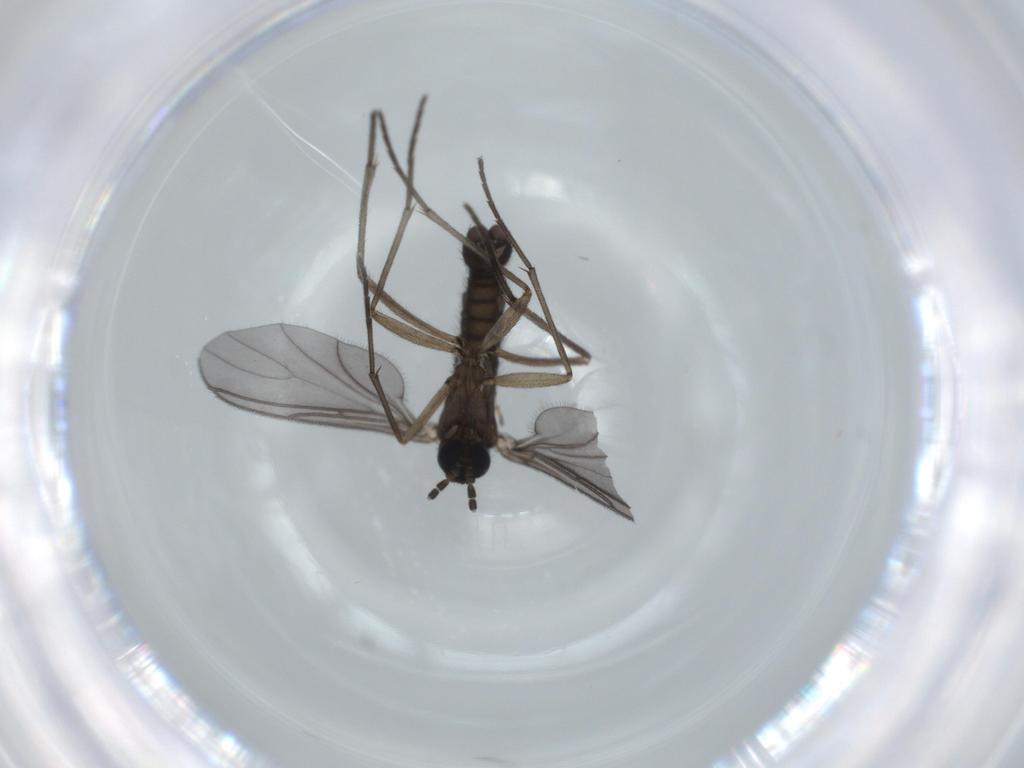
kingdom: Animalia
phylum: Arthropoda
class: Insecta
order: Diptera
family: Sciaridae
